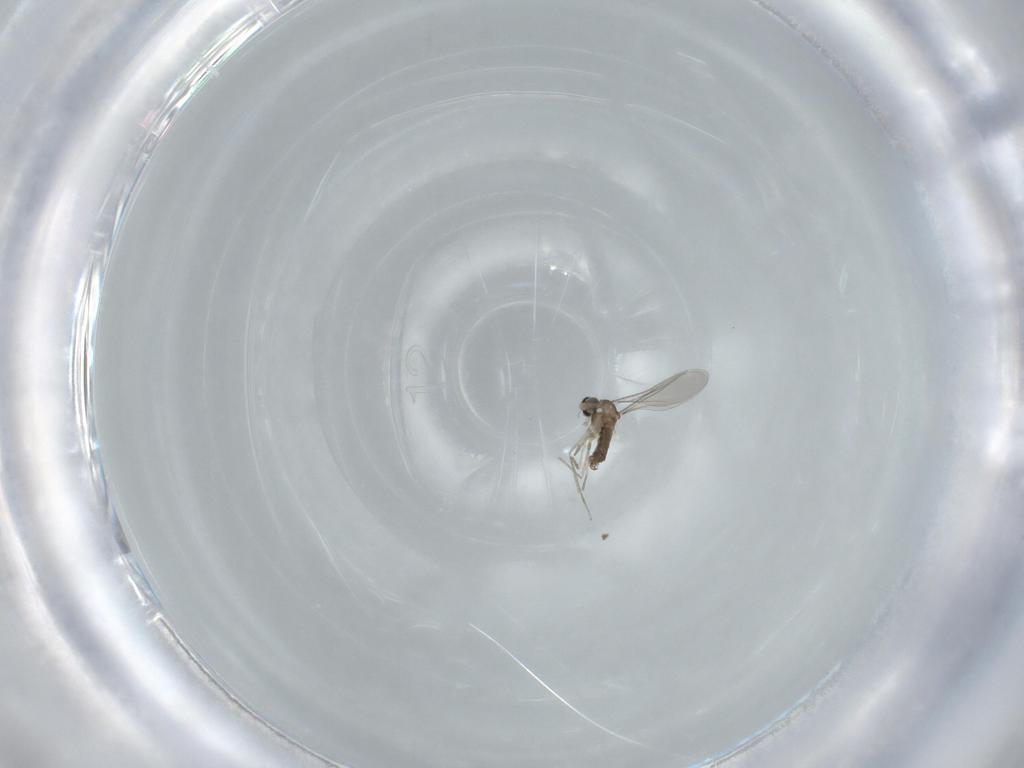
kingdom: Animalia
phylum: Arthropoda
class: Insecta
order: Diptera
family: Cecidomyiidae
